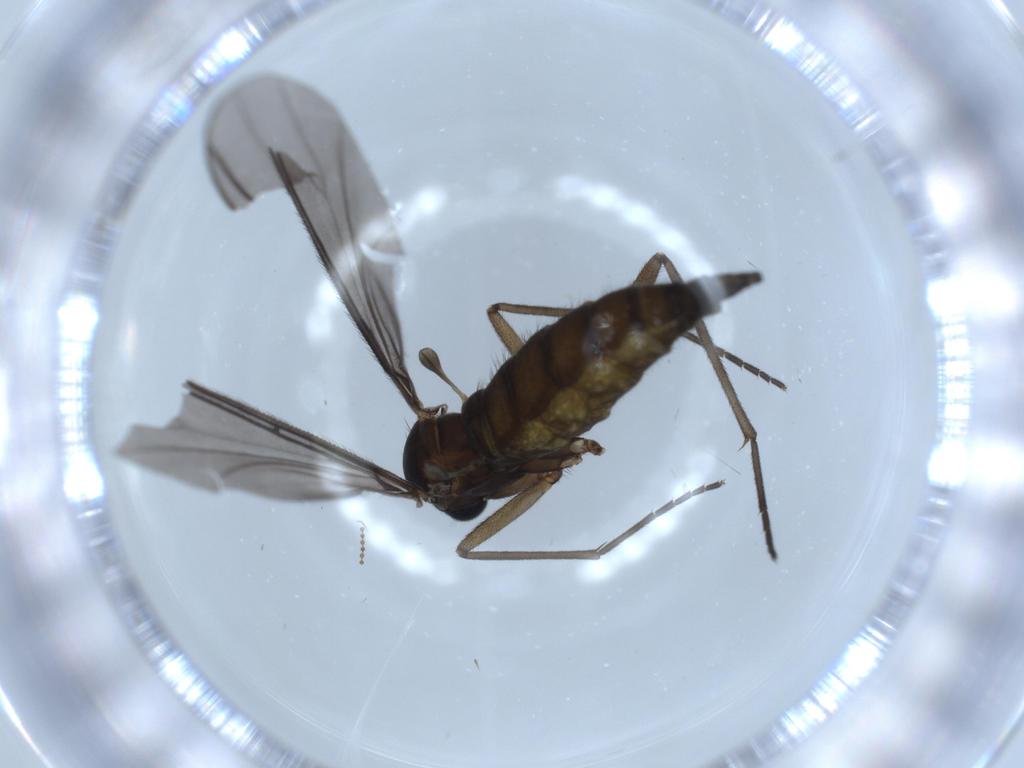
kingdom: Animalia
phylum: Arthropoda
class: Insecta
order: Diptera
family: Sciaridae
